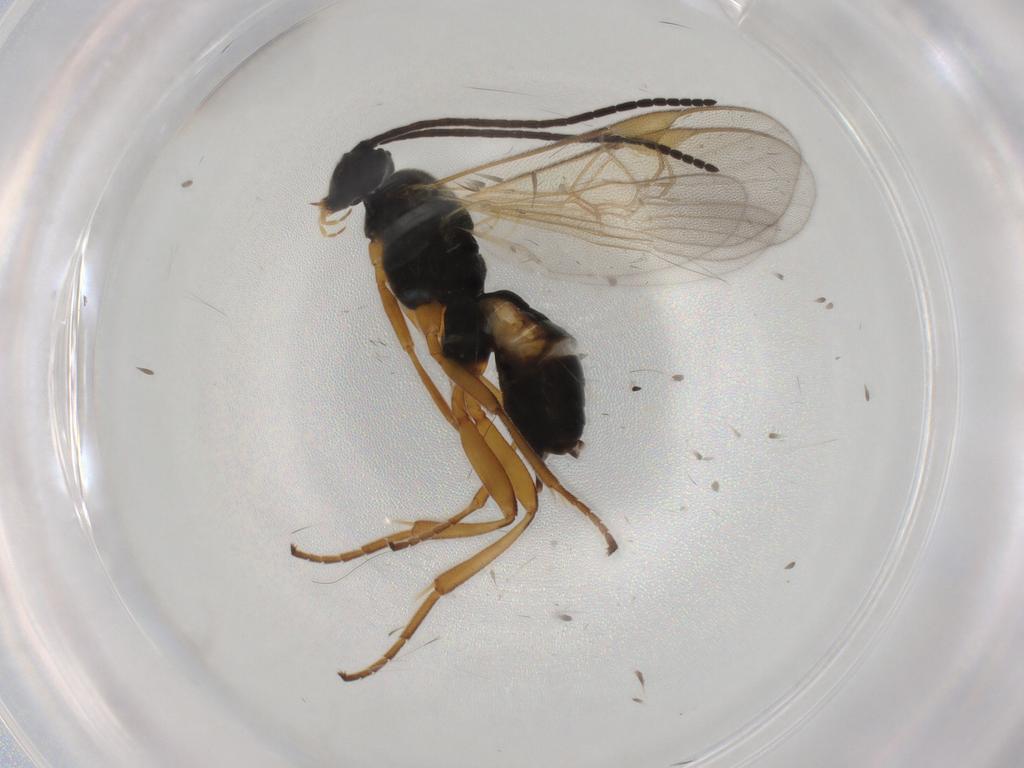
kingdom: Animalia
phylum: Arthropoda
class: Insecta
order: Hymenoptera
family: Braconidae
